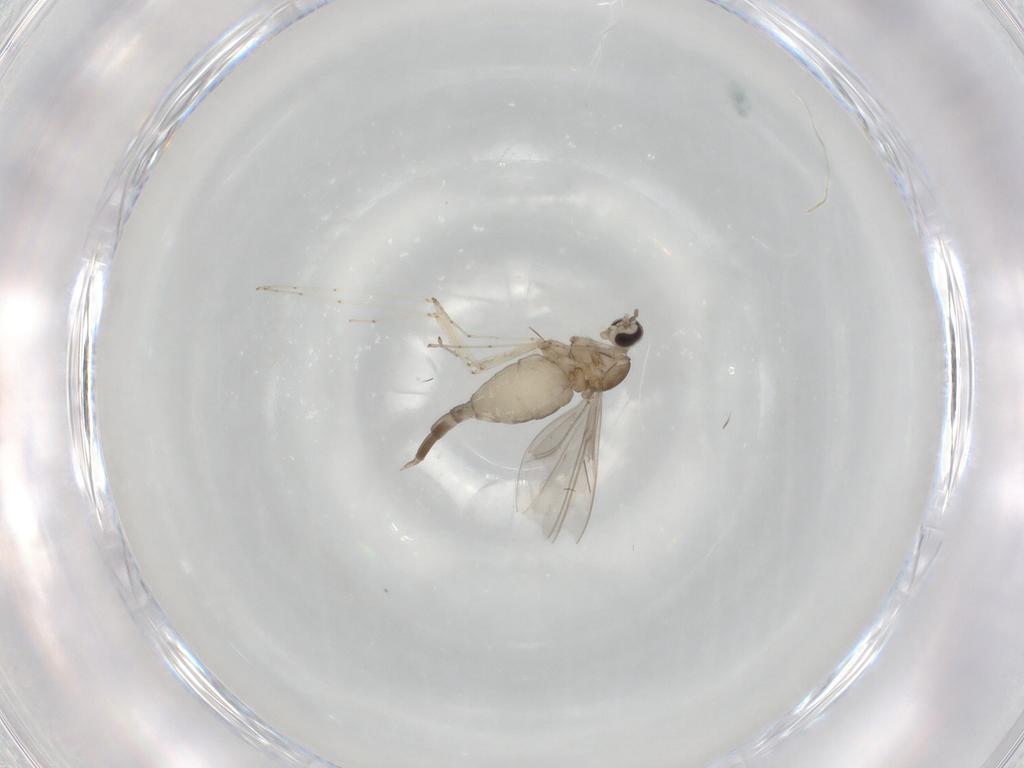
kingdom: Animalia
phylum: Arthropoda
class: Insecta
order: Diptera
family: Cecidomyiidae
